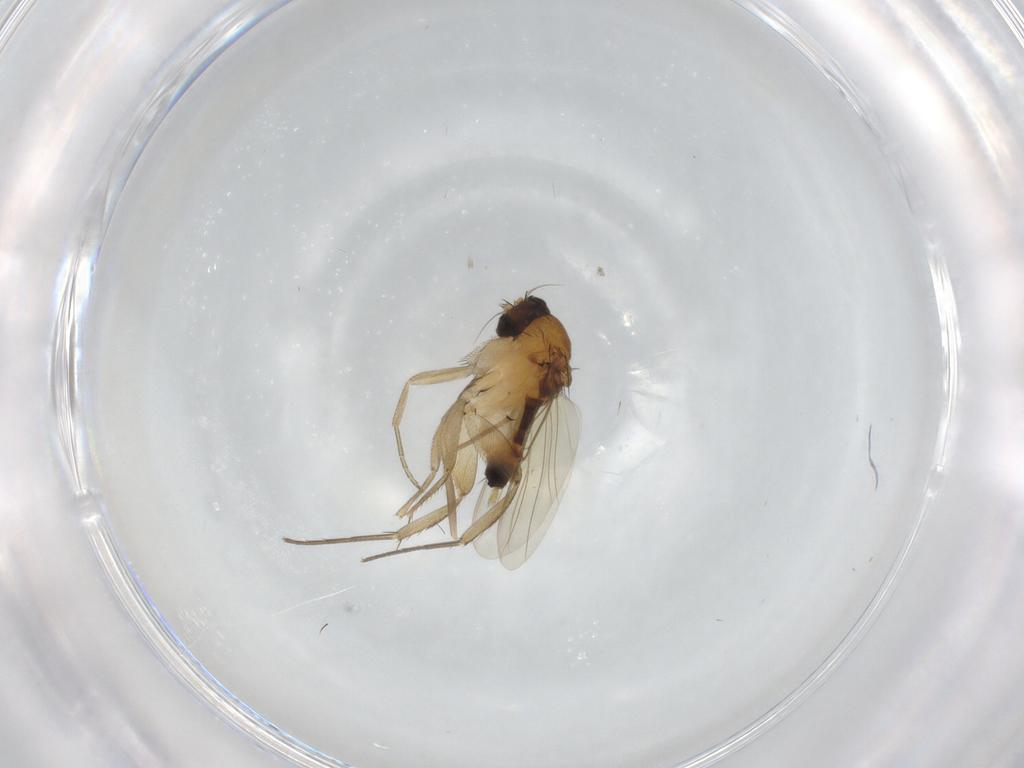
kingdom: Animalia
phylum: Arthropoda
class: Insecta
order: Diptera
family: Phoridae
